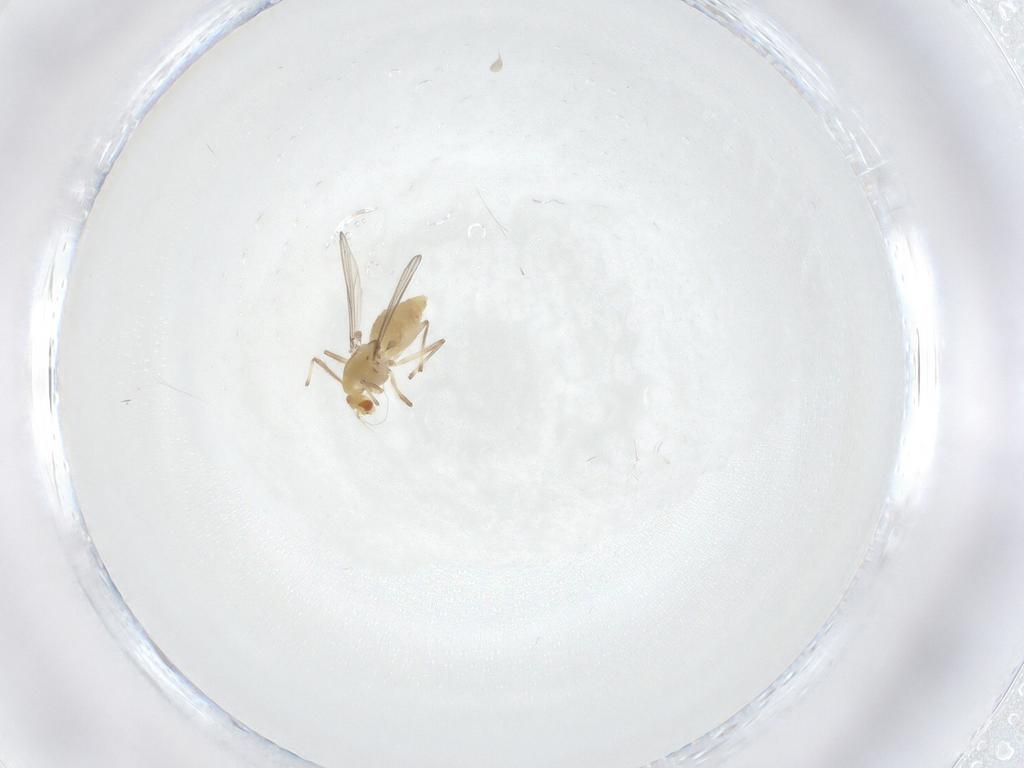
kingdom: Animalia
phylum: Arthropoda
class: Insecta
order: Diptera
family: Chironomidae
